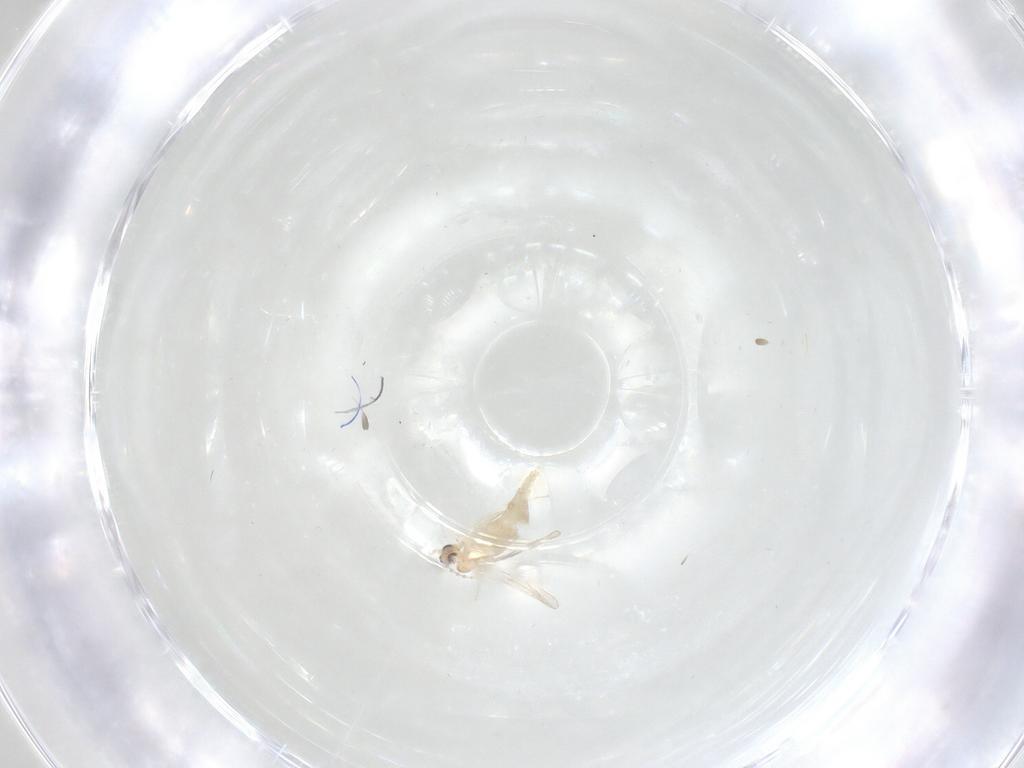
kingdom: Animalia
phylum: Arthropoda
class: Insecta
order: Diptera
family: Cecidomyiidae
